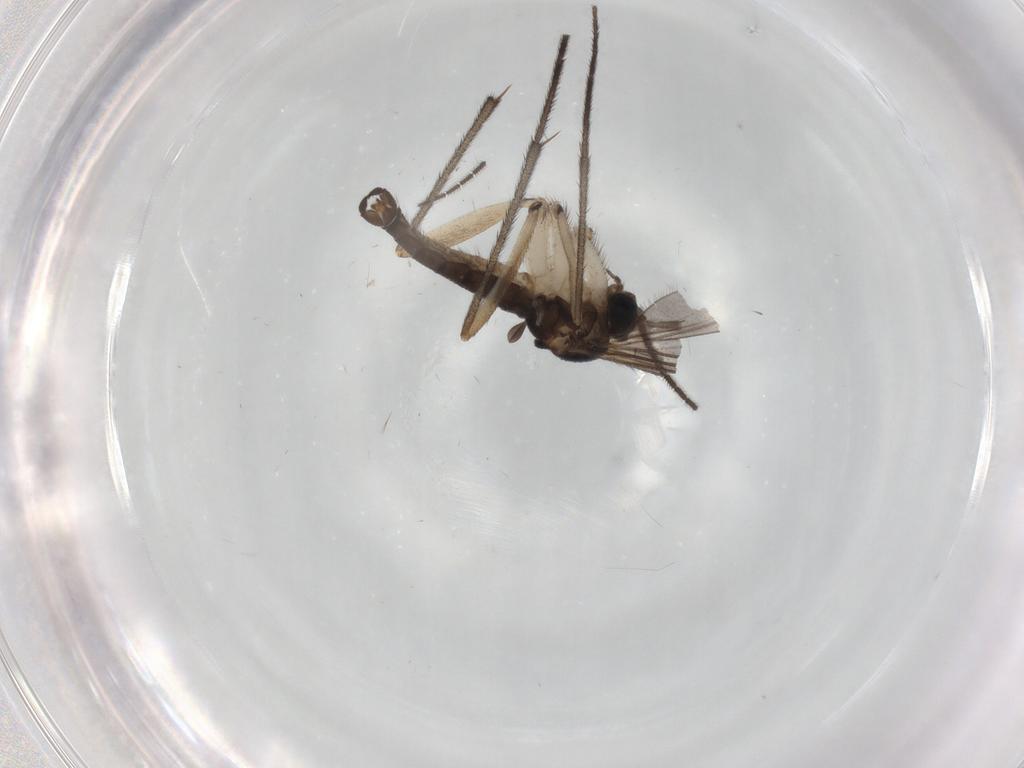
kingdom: Animalia
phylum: Arthropoda
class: Insecta
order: Diptera
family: Sciaridae
